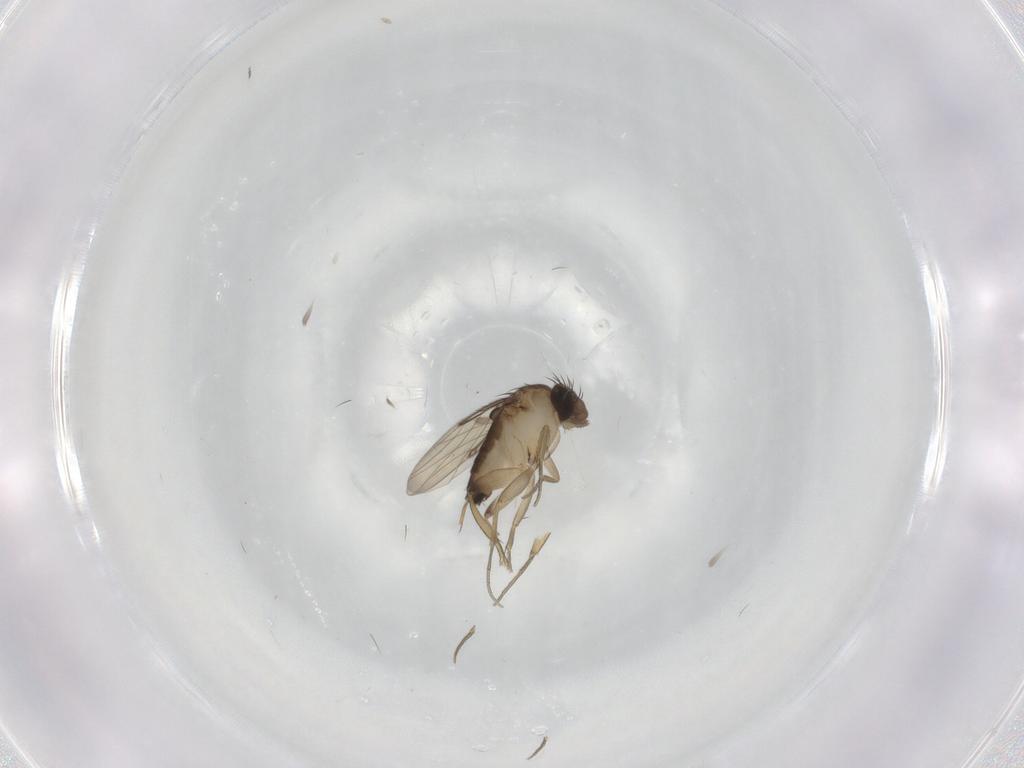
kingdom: Animalia
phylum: Arthropoda
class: Insecta
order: Diptera
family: Phoridae
